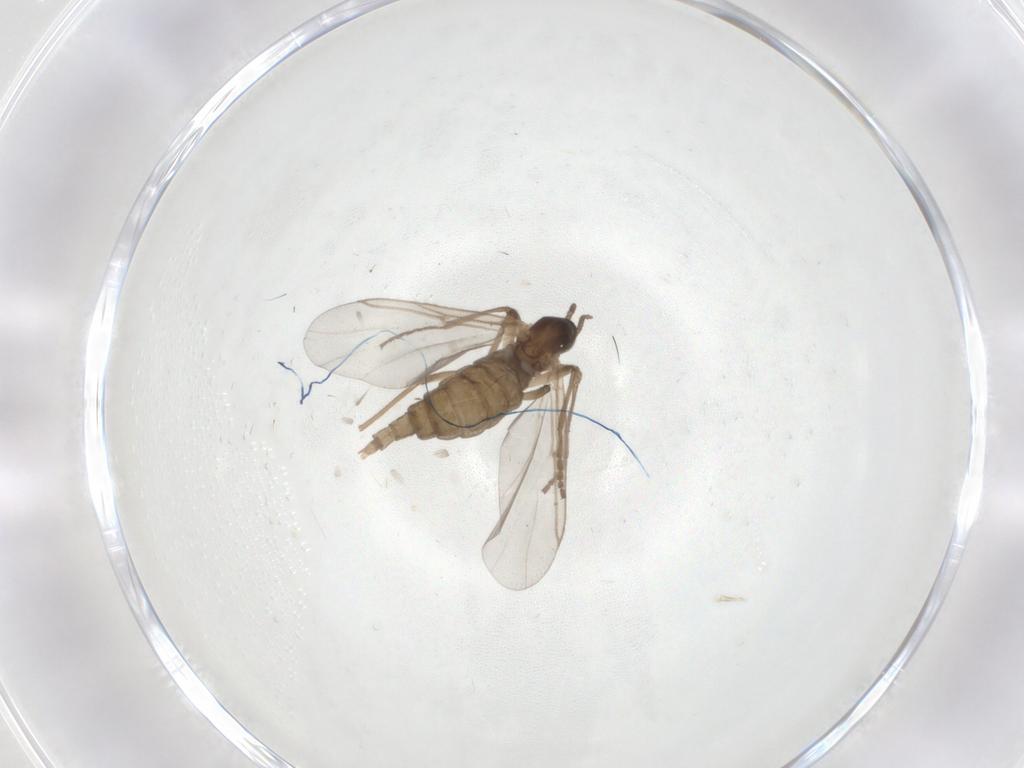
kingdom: Animalia
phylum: Arthropoda
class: Insecta
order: Diptera
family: Cecidomyiidae
